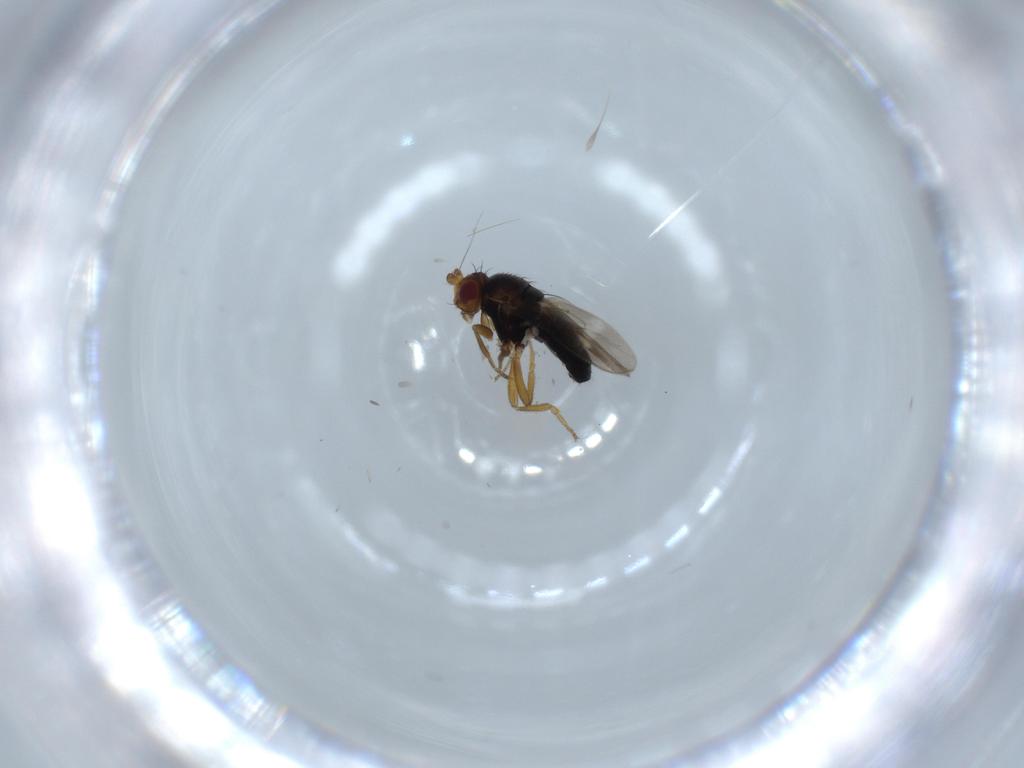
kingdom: Animalia
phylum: Arthropoda
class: Insecta
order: Diptera
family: Sphaeroceridae
